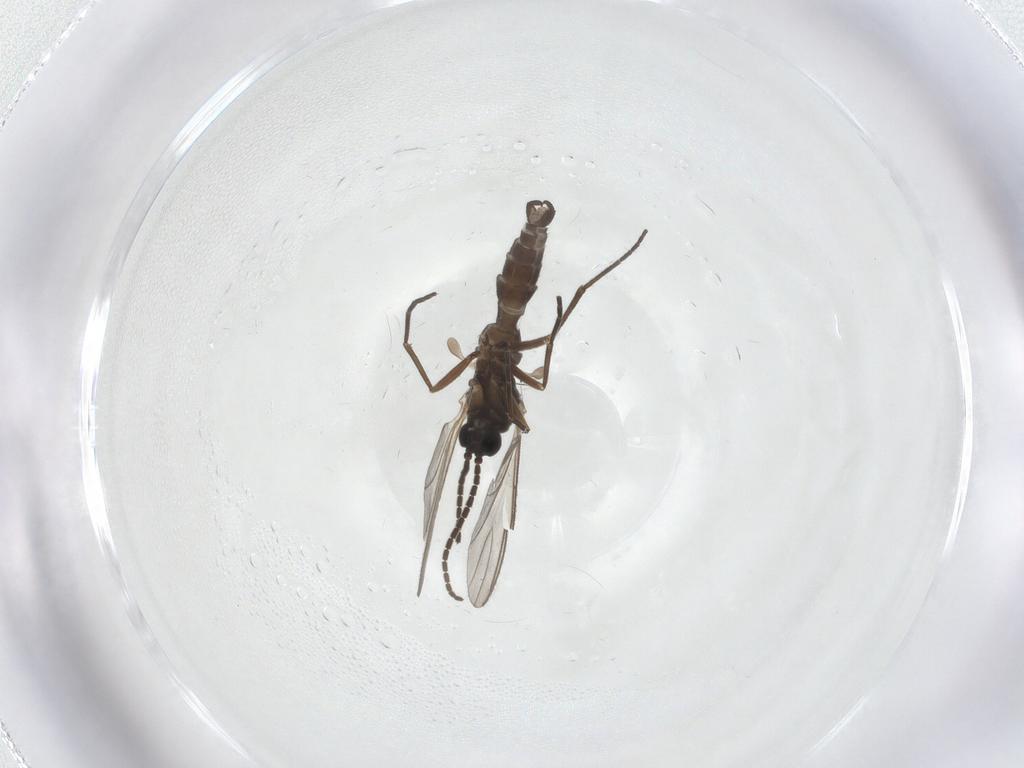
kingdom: Animalia
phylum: Arthropoda
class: Insecta
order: Diptera
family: Sciaridae
